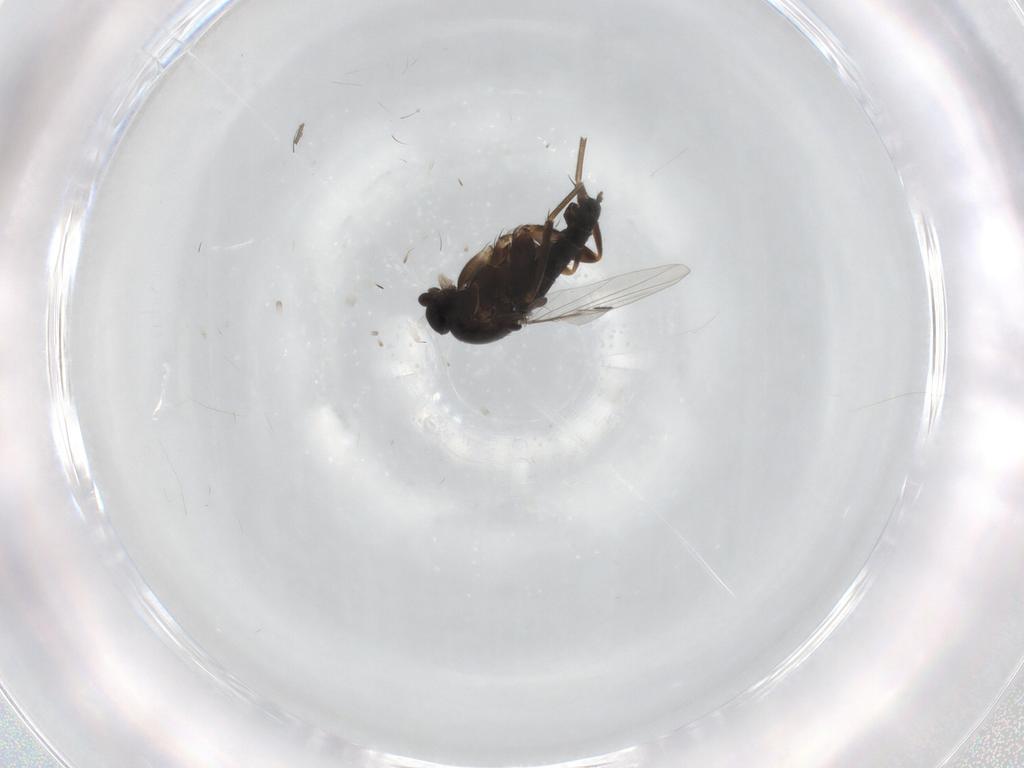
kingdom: Animalia
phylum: Arthropoda
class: Insecta
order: Diptera
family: Phoridae
